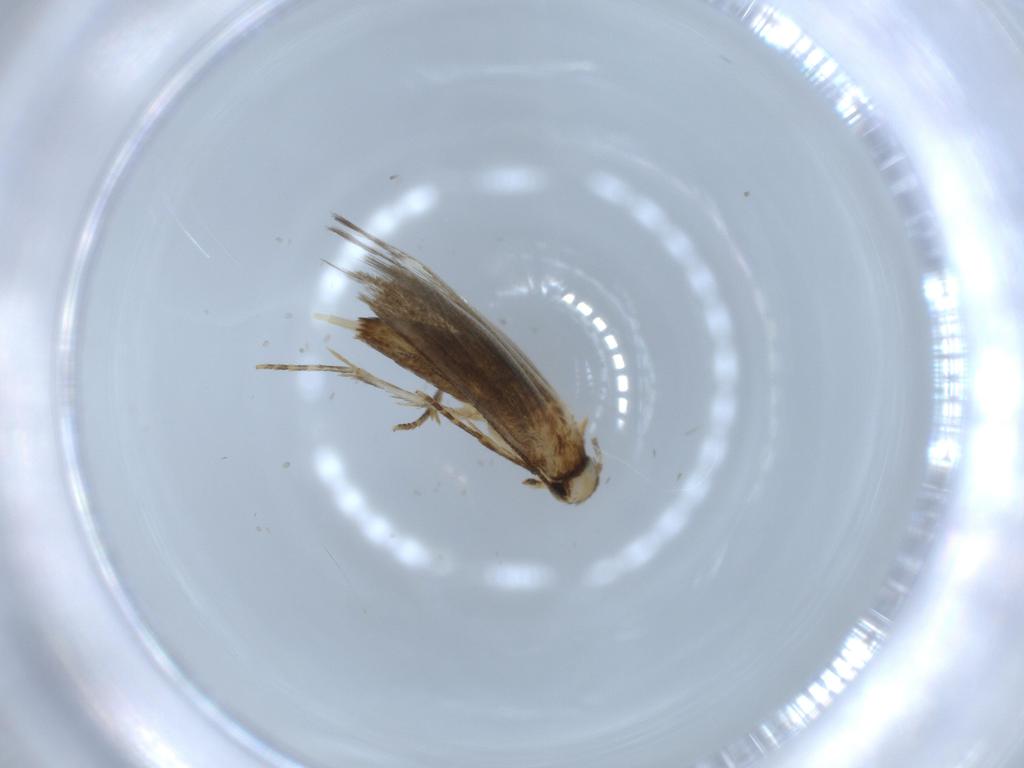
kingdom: Animalia
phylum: Arthropoda
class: Insecta
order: Lepidoptera
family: Tineidae
